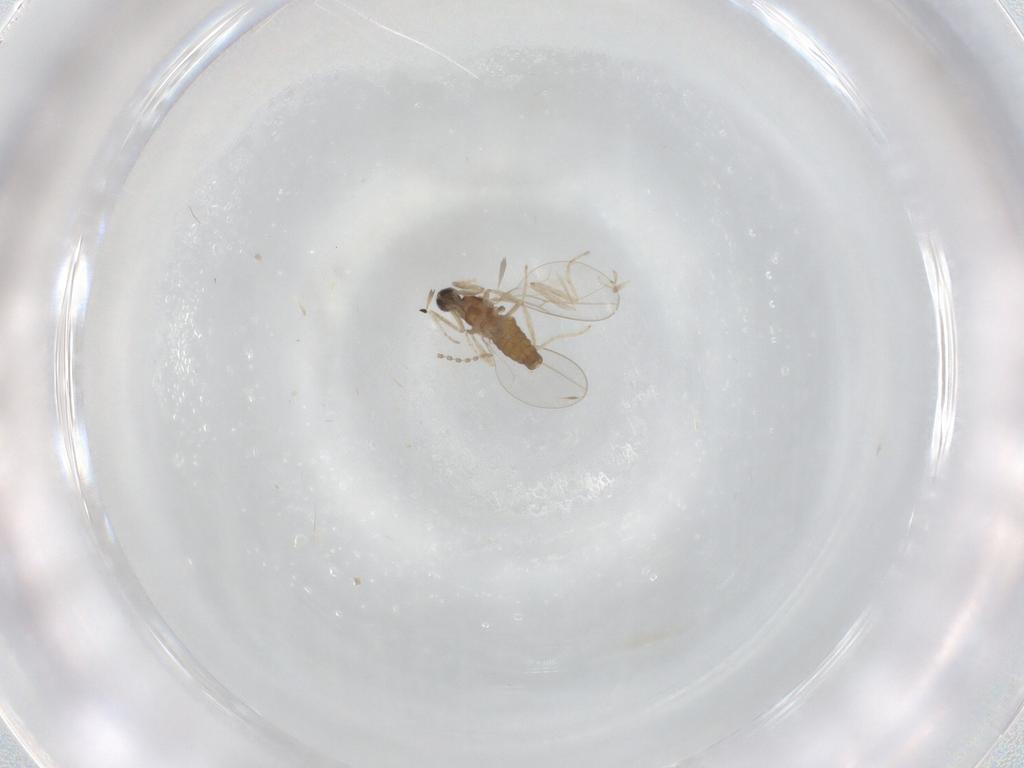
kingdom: Animalia
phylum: Arthropoda
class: Insecta
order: Diptera
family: Cecidomyiidae
